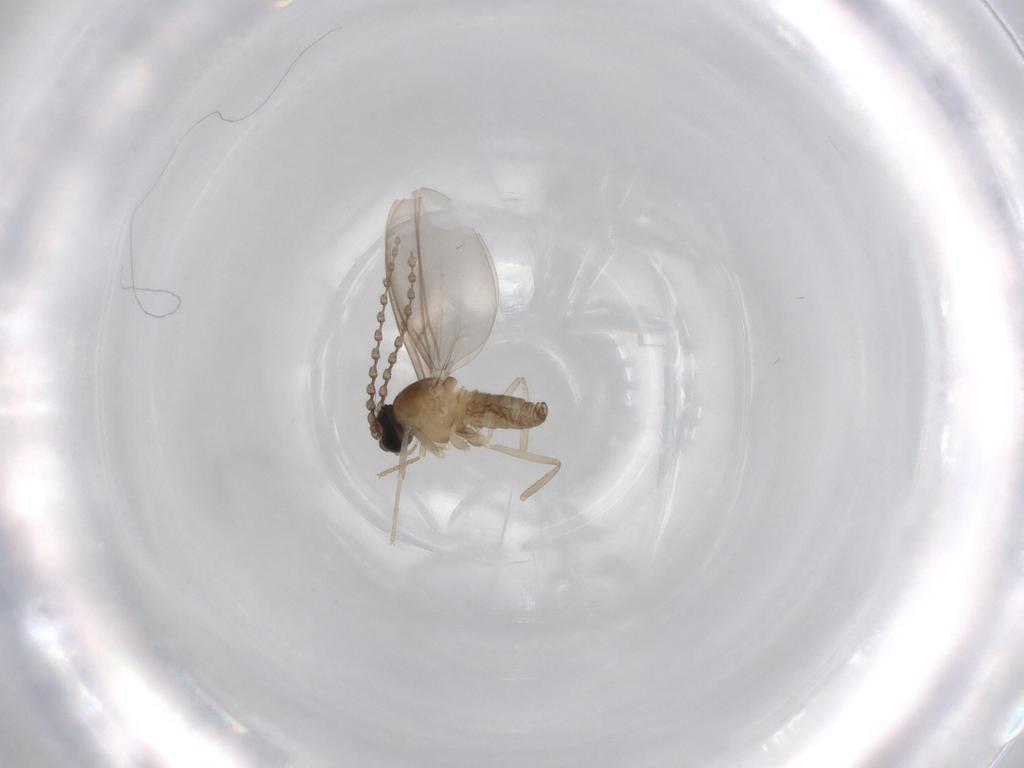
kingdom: Animalia
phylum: Arthropoda
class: Insecta
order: Diptera
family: Cecidomyiidae
